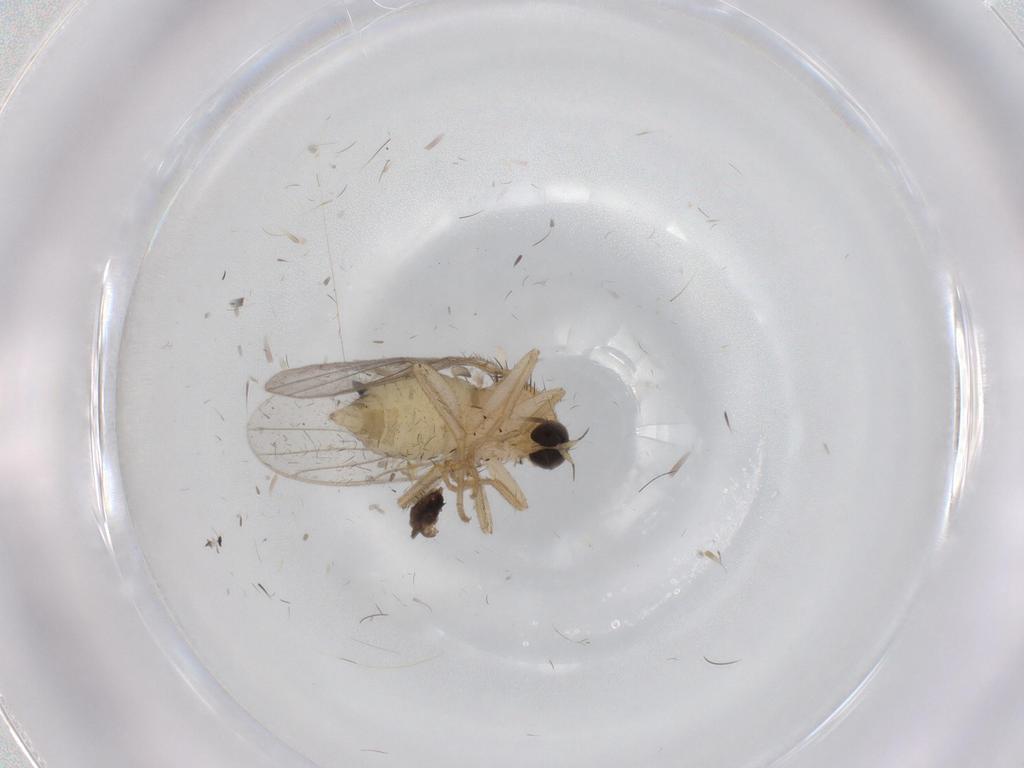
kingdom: Animalia
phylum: Arthropoda
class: Insecta
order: Diptera
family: Hybotidae
